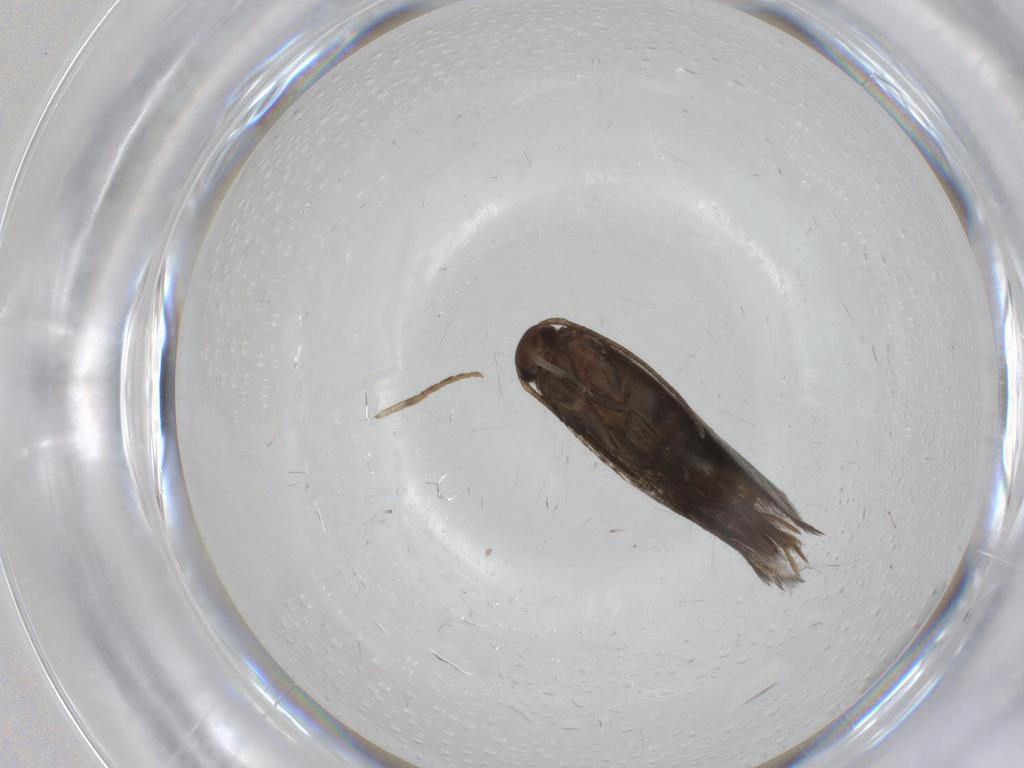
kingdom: Animalia
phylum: Arthropoda
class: Insecta
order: Lepidoptera
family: Elachistidae
